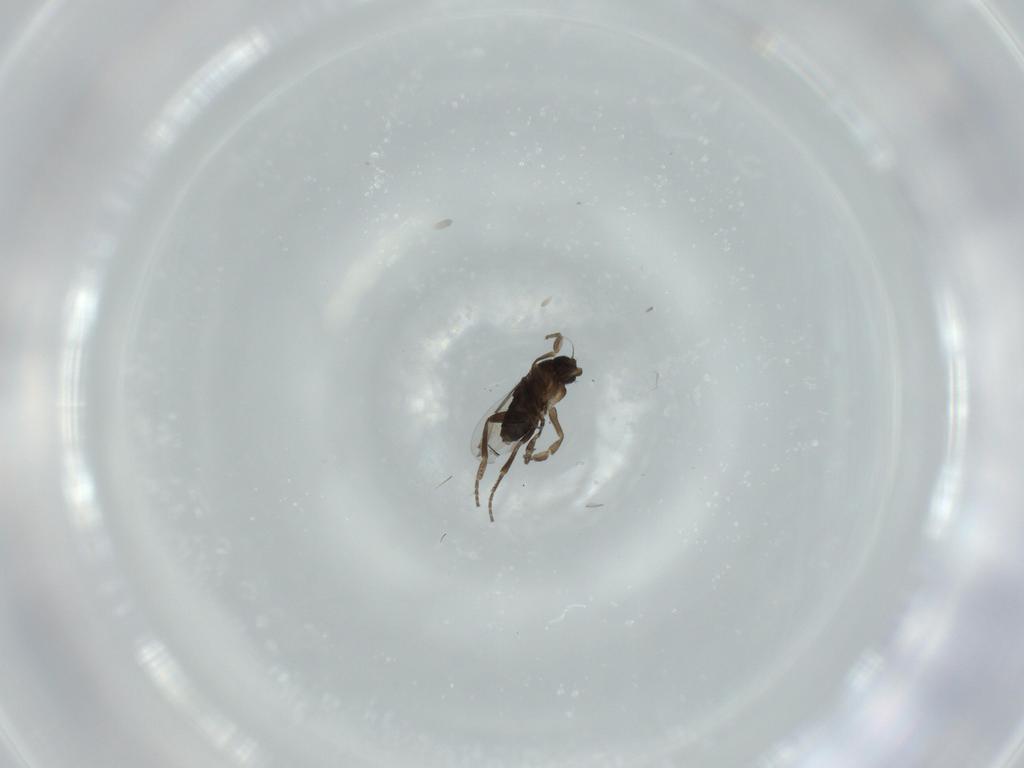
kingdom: Animalia
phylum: Arthropoda
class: Insecta
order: Diptera
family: Phoridae
